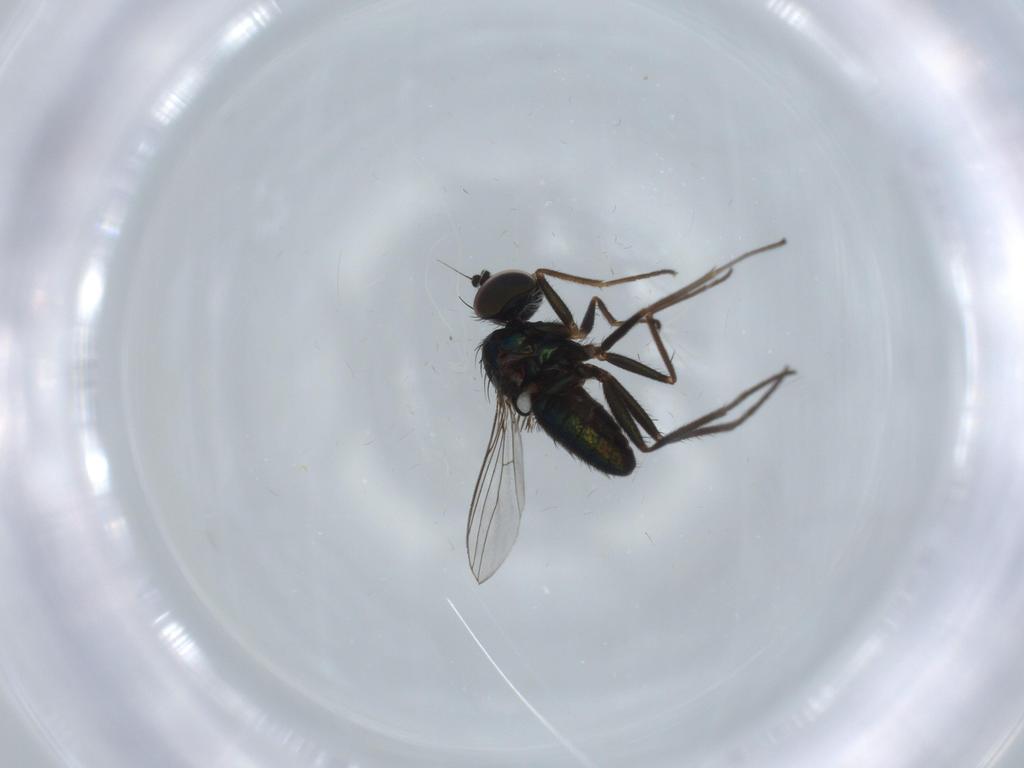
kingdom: Animalia
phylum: Arthropoda
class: Insecta
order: Diptera
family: Dolichopodidae
